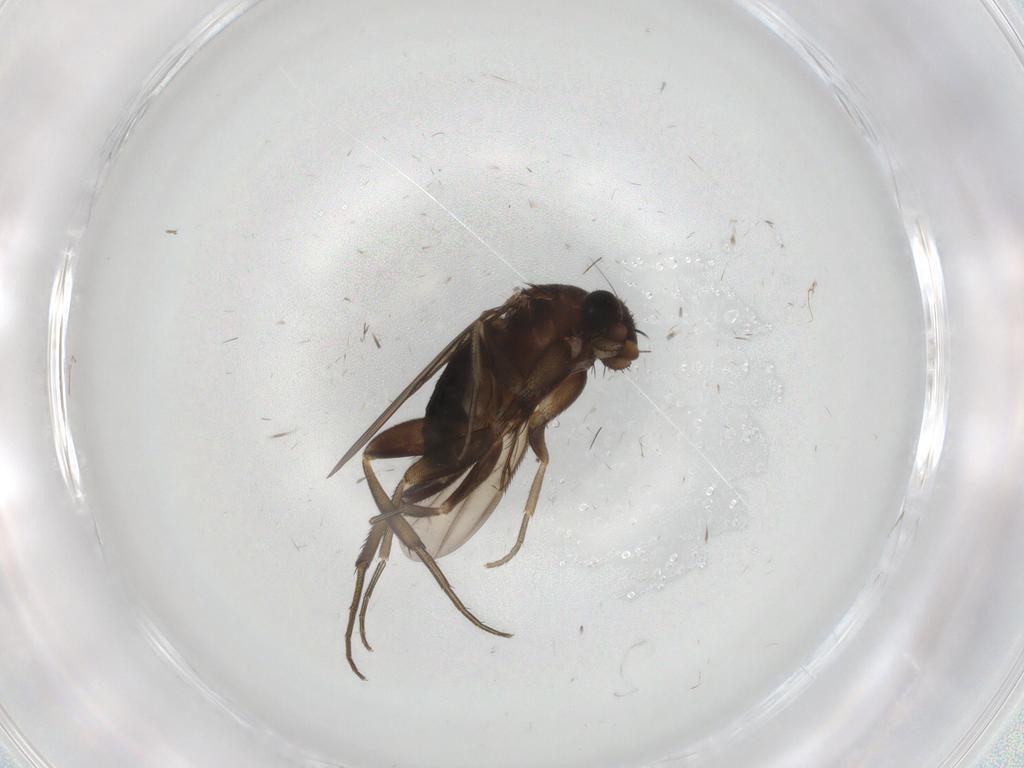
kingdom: Animalia
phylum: Arthropoda
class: Insecta
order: Diptera
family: Phoridae
